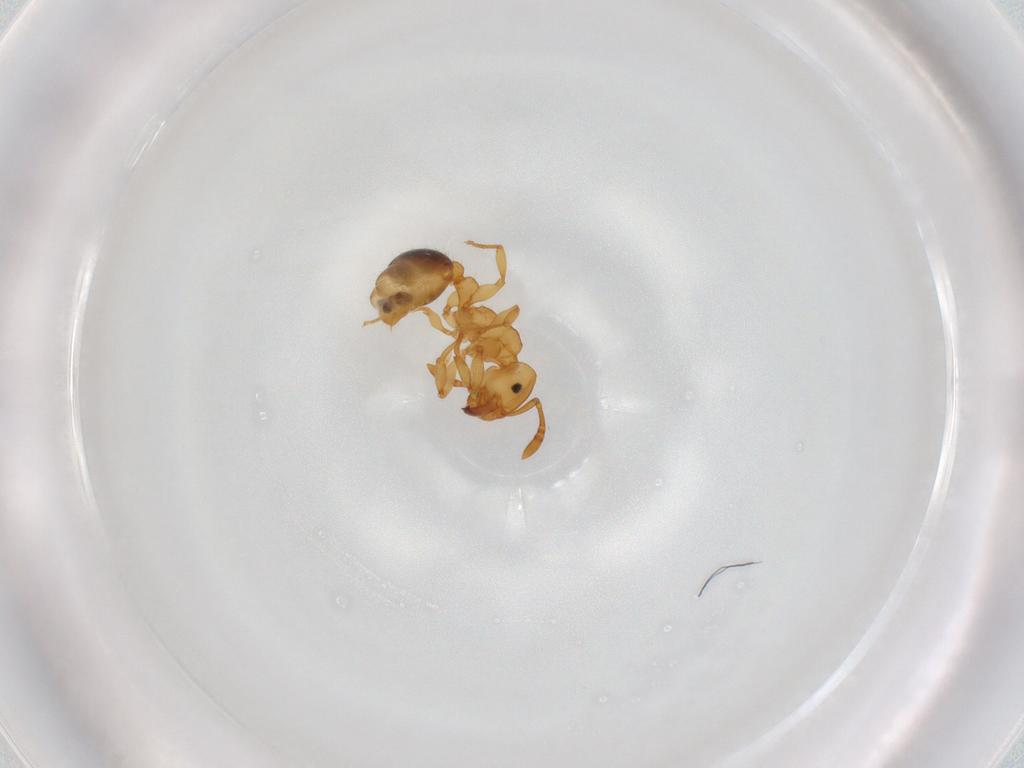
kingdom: Animalia
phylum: Arthropoda
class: Insecta
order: Hymenoptera
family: Formicidae
